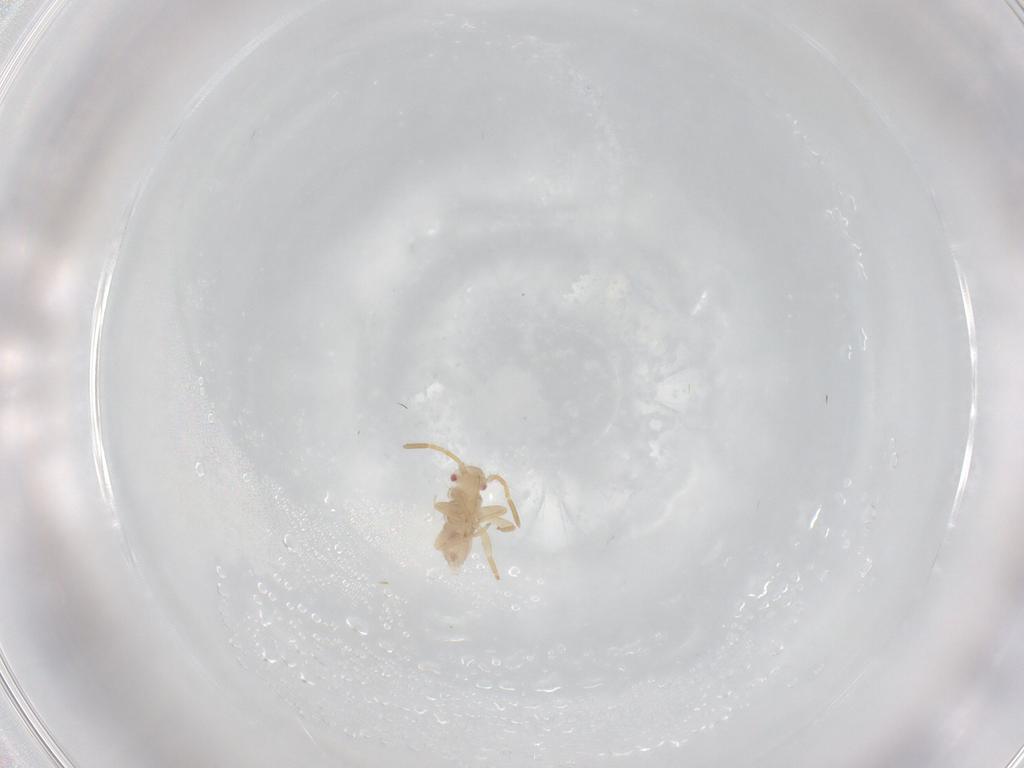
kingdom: Animalia
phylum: Arthropoda
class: Insecta
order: Hemiptera
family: Miridae
